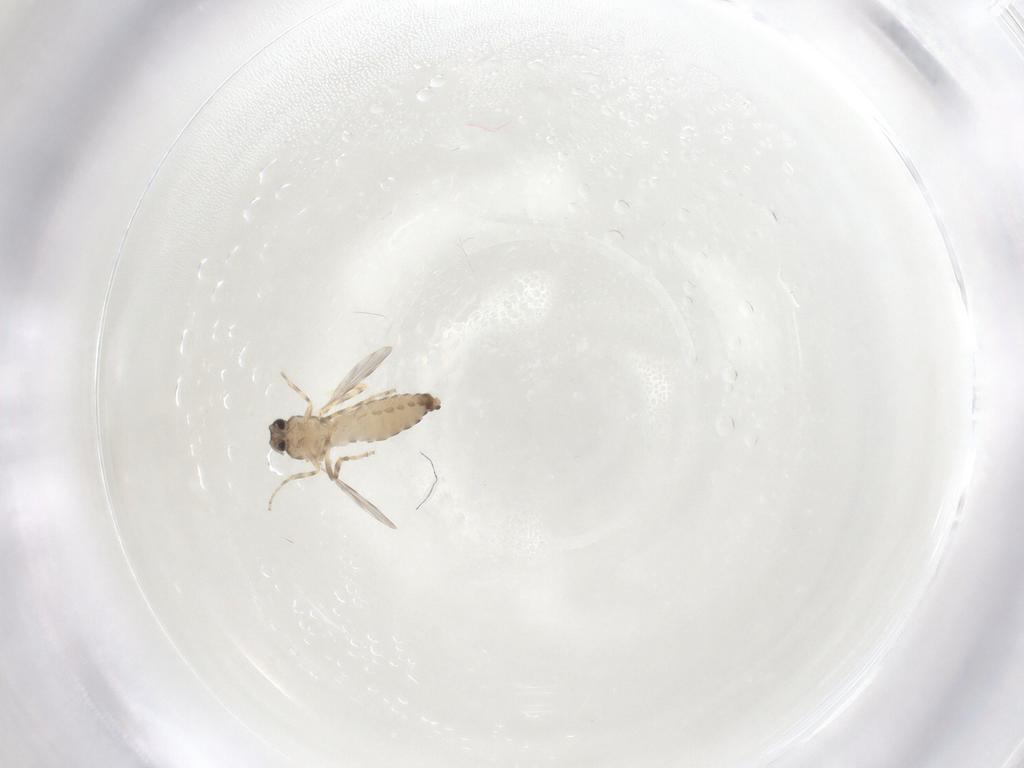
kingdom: Animalia
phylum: Arthropoda
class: Insecta
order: Diptera
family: Ceratopogonidae
